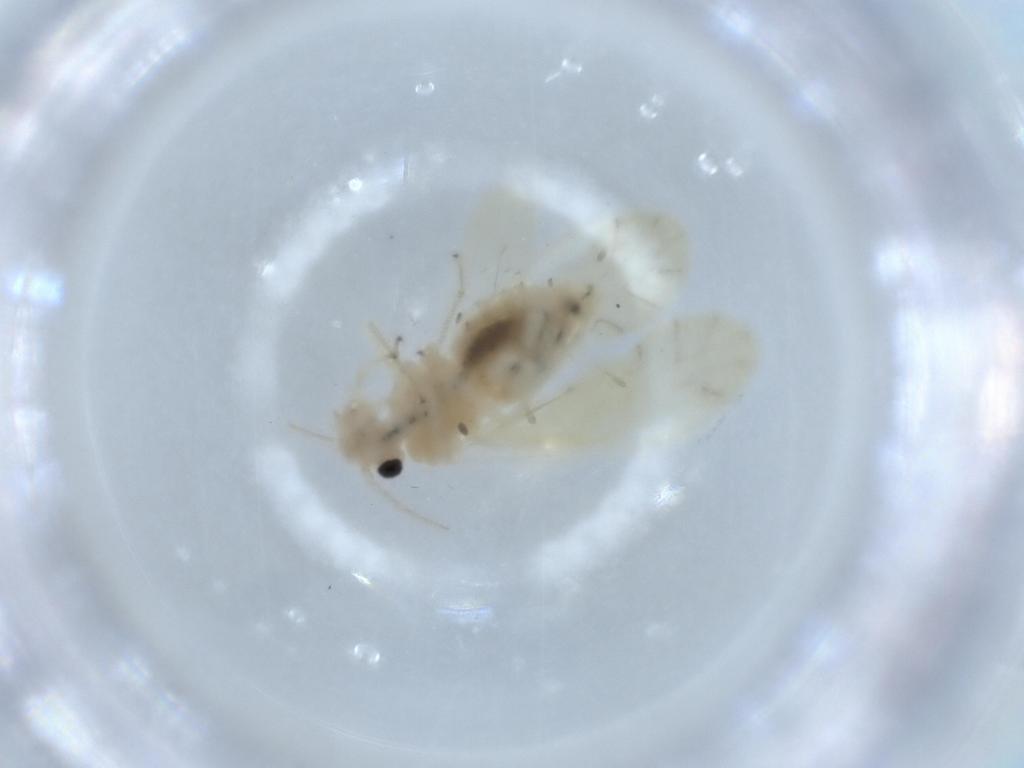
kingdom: Animalia
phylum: Arthropoda
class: Insecta
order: Psocodea
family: Caeciliusidae
